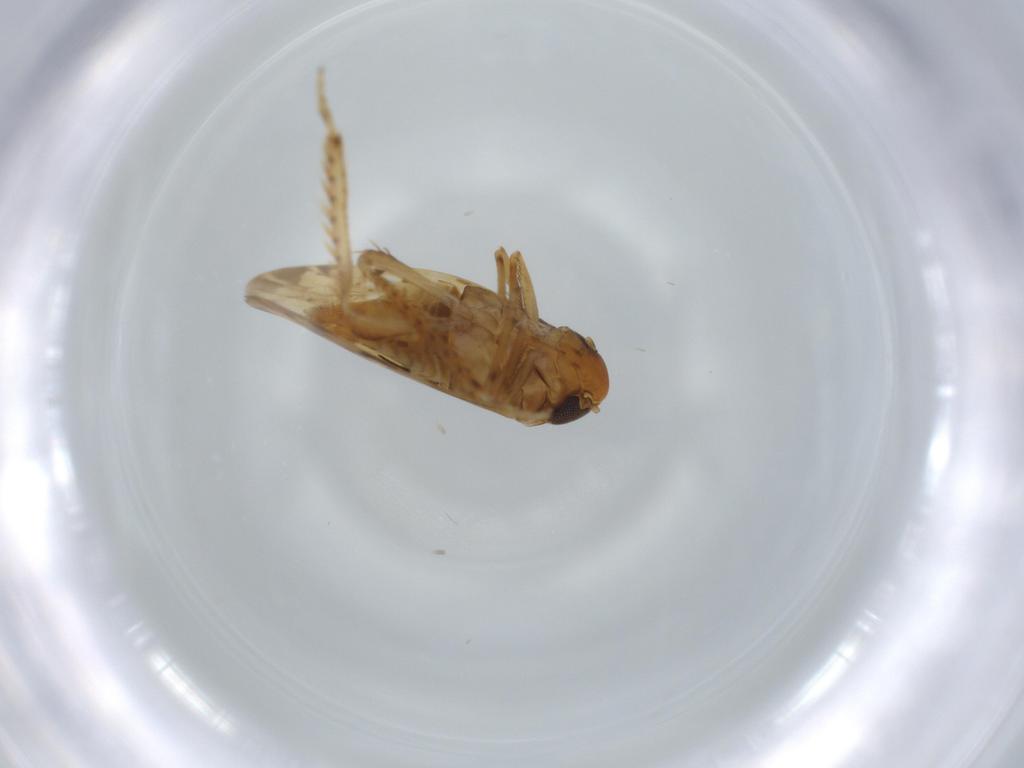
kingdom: Animalia
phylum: Arthropoda
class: Insecta
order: Hemiptera
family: Cicadellidae
